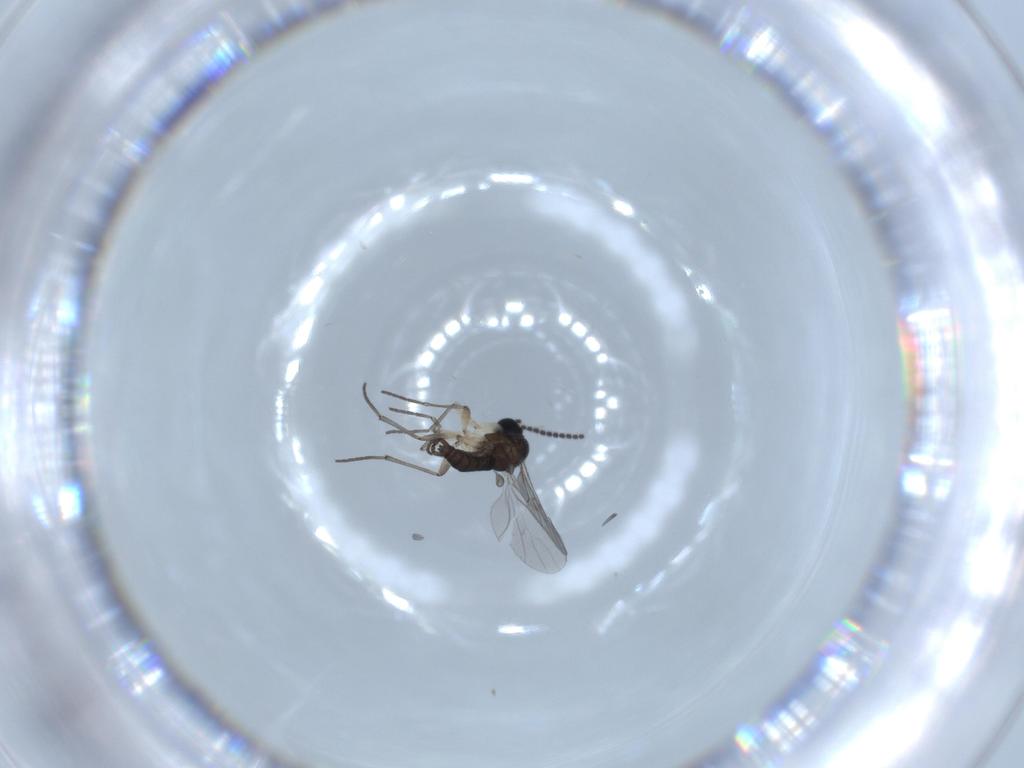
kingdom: Animalia
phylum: Arthropoda
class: Insecta
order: Diptera
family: Sciaridae
